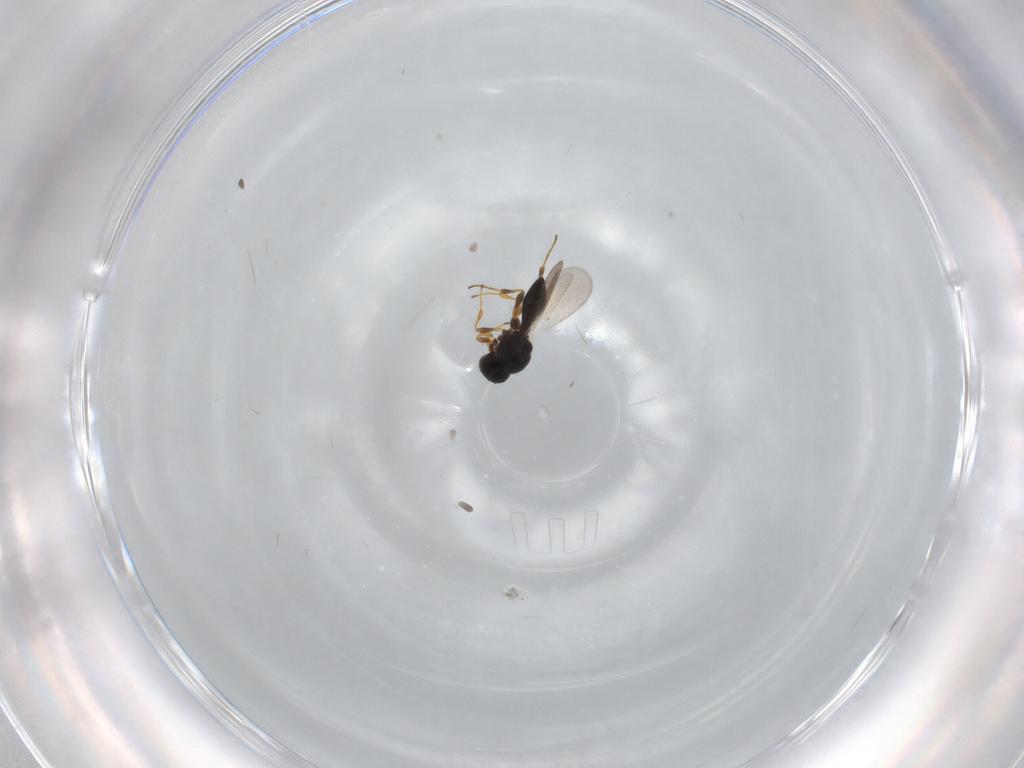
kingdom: Animalia
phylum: Arthropoda
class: Insecta
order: Hymenoptera
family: Platygastridae
